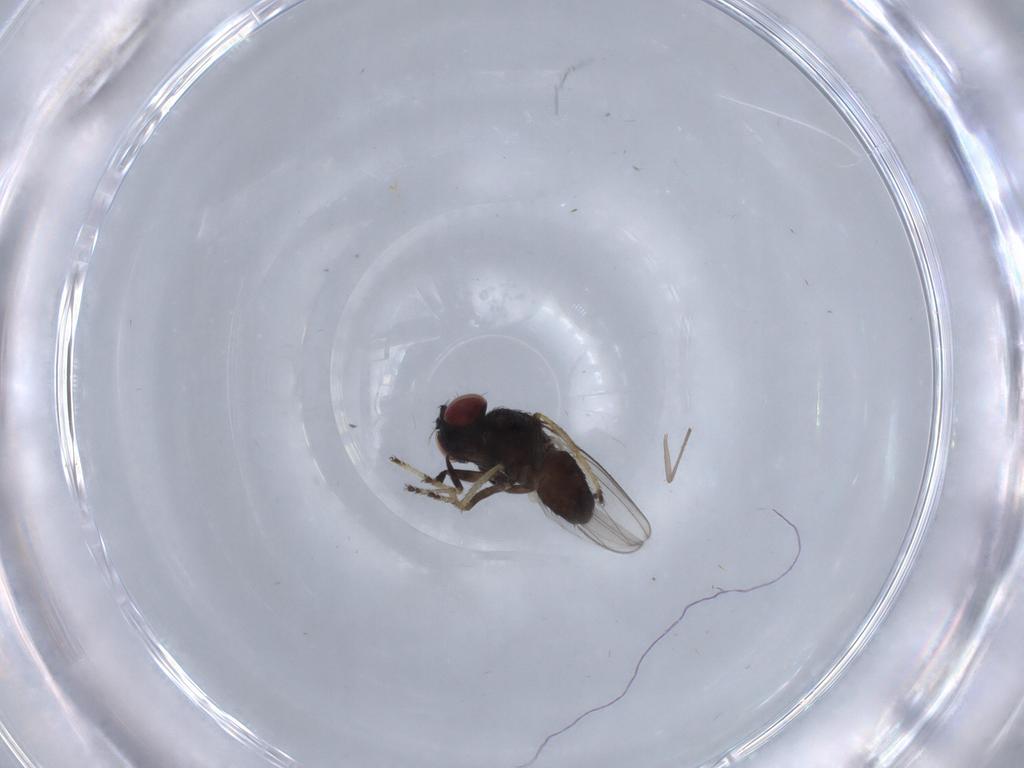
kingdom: Animalia
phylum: Arthropoda
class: Insecta
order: Diptera
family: Ephydridae
